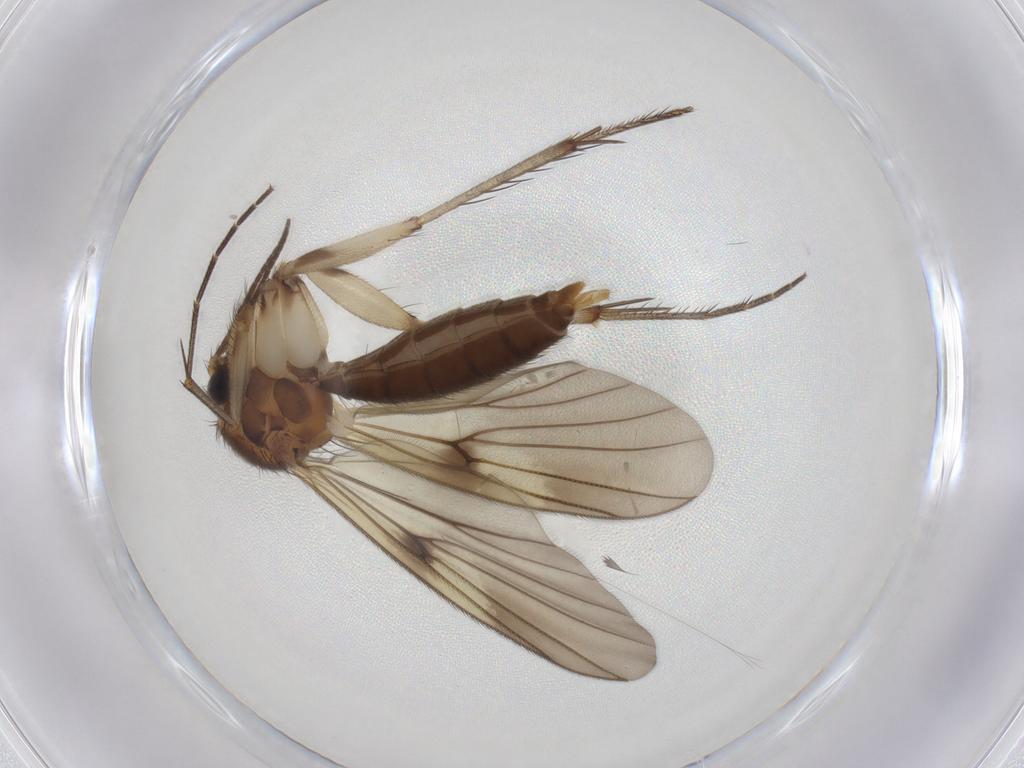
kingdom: Animalia
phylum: Arthropoda
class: Insecta
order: Diptera
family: Mycetophilidae
